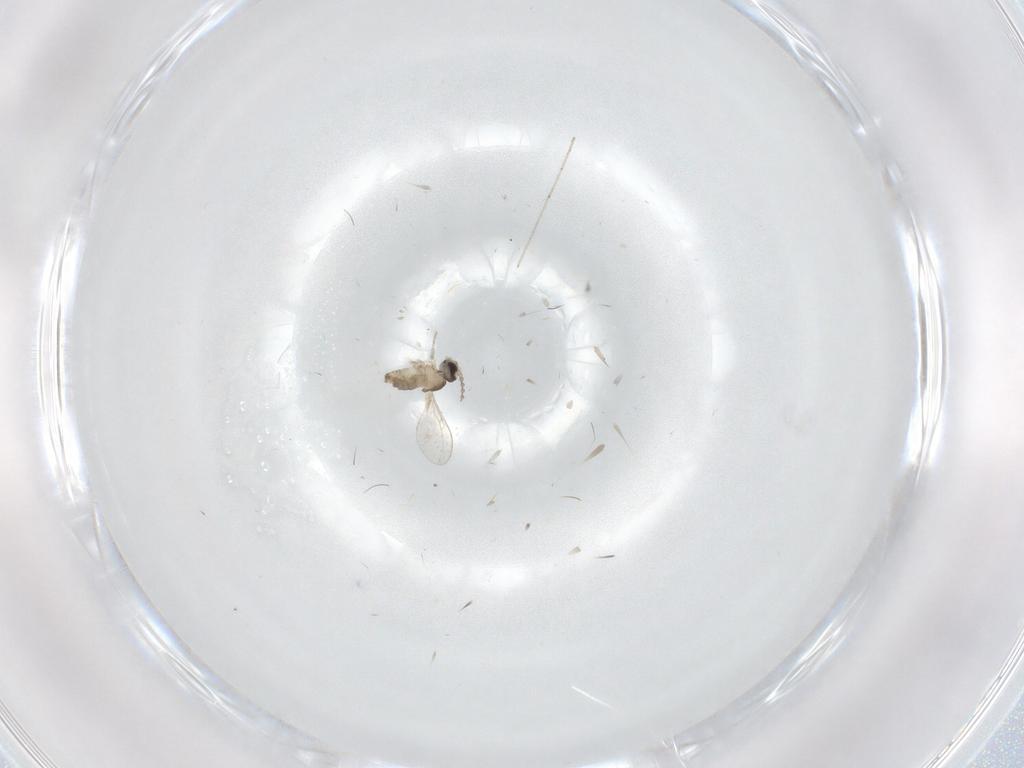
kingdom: Animalia
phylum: Arthropoda
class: Insecta
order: Diptera
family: Cecidomyiidae
